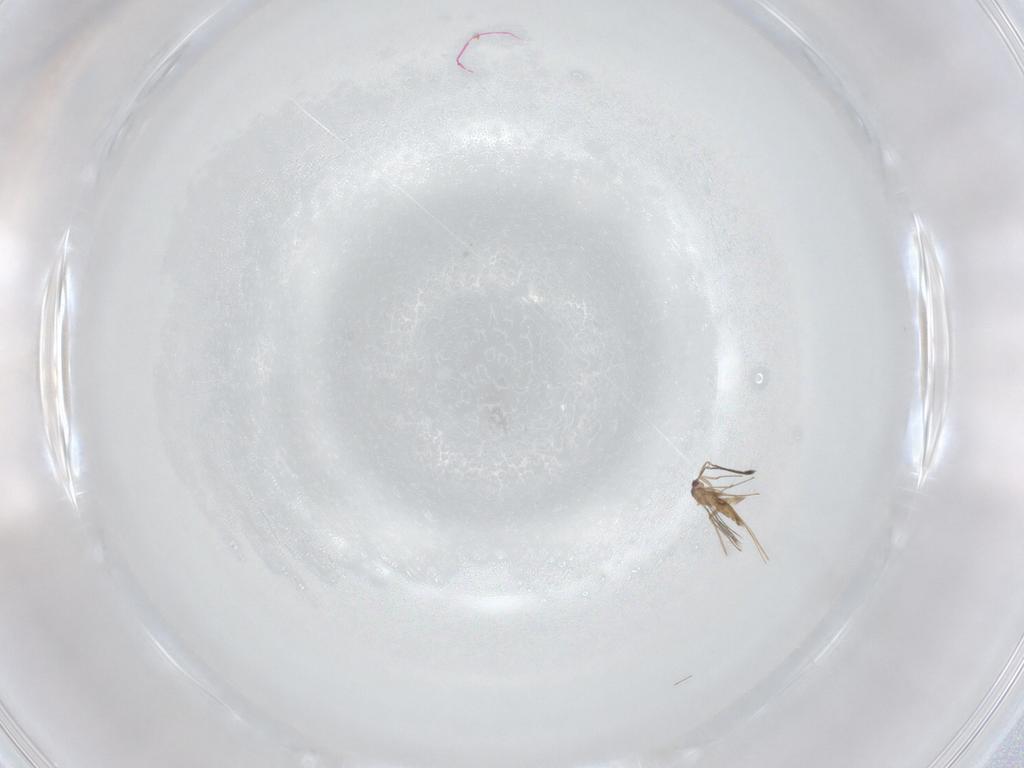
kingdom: Animalia
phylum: Arthropoda
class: Insecta
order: Hymenoptera
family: Mymaridae
